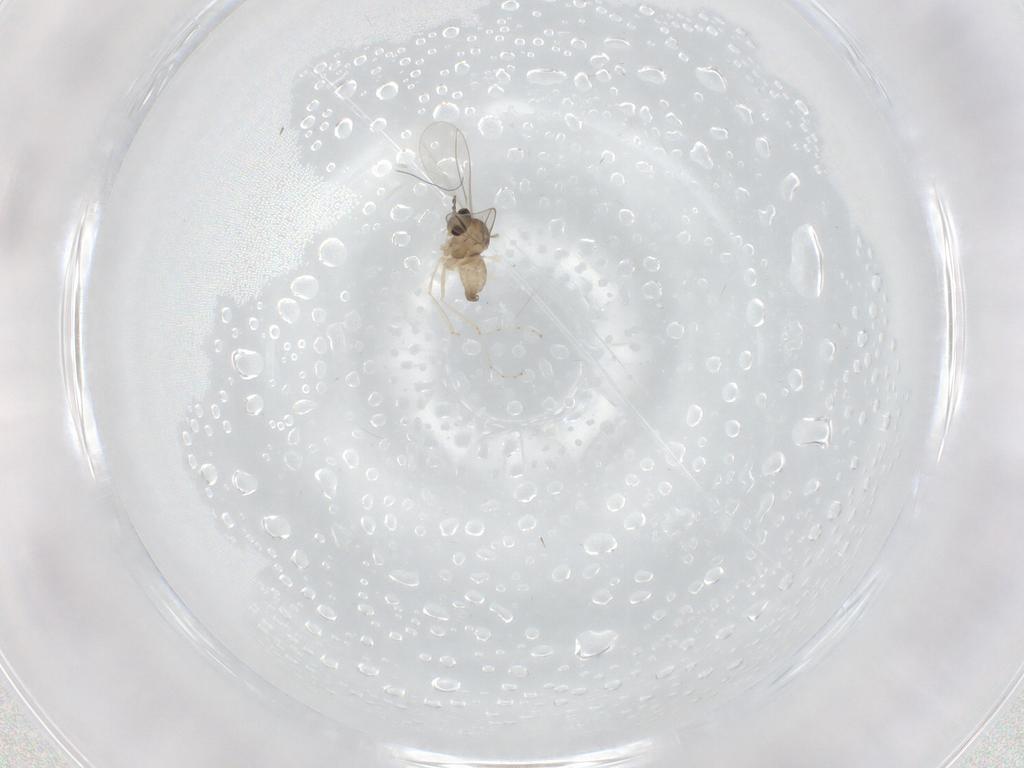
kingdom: Animalia
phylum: Arthropoda
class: Insecta
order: Diptera
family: Cecidomyiidae
